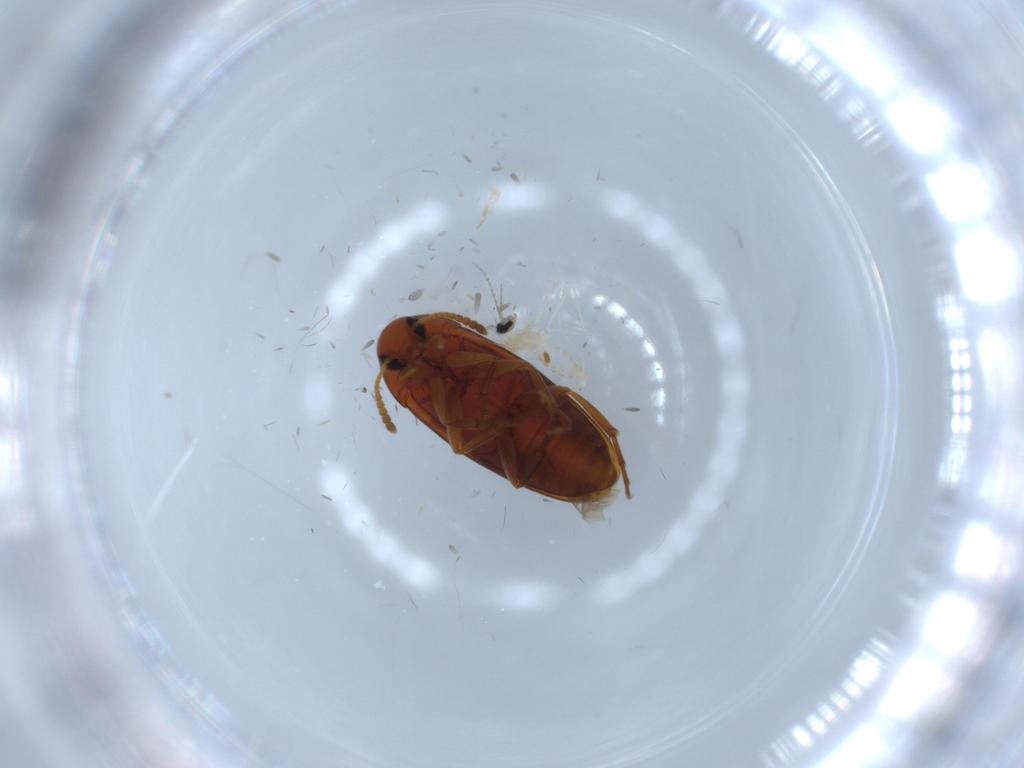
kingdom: Animalia
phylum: Arthropoda
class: Insecta
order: Coleoptera
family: Scraptiidae
